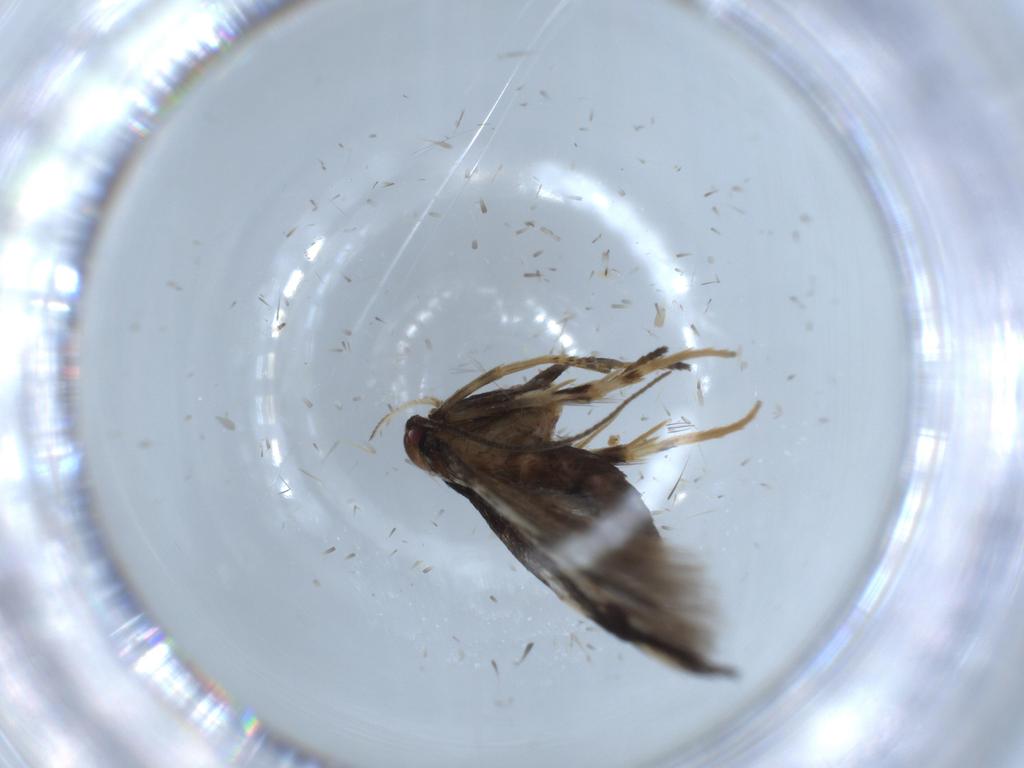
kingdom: Animalia
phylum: Arthropoda
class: Insecta
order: Lepidoptera
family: Cosmopterigidae
